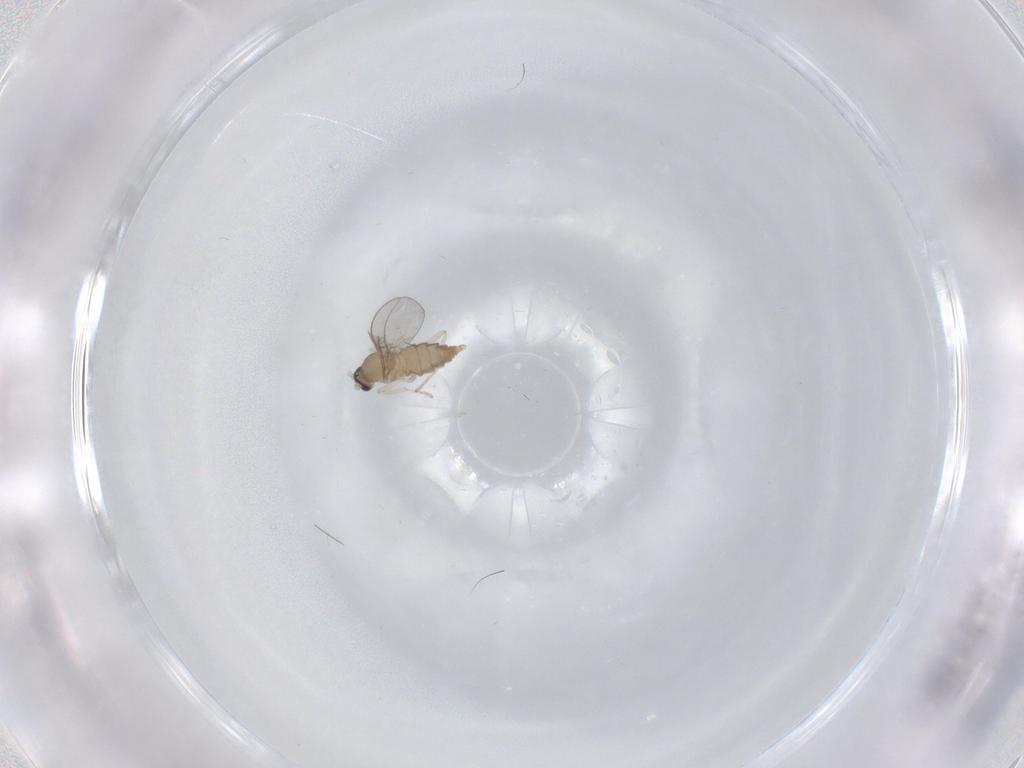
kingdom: Animalia
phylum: Arthropoda
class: Insecta
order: Diptera
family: Cecidomyiidae
